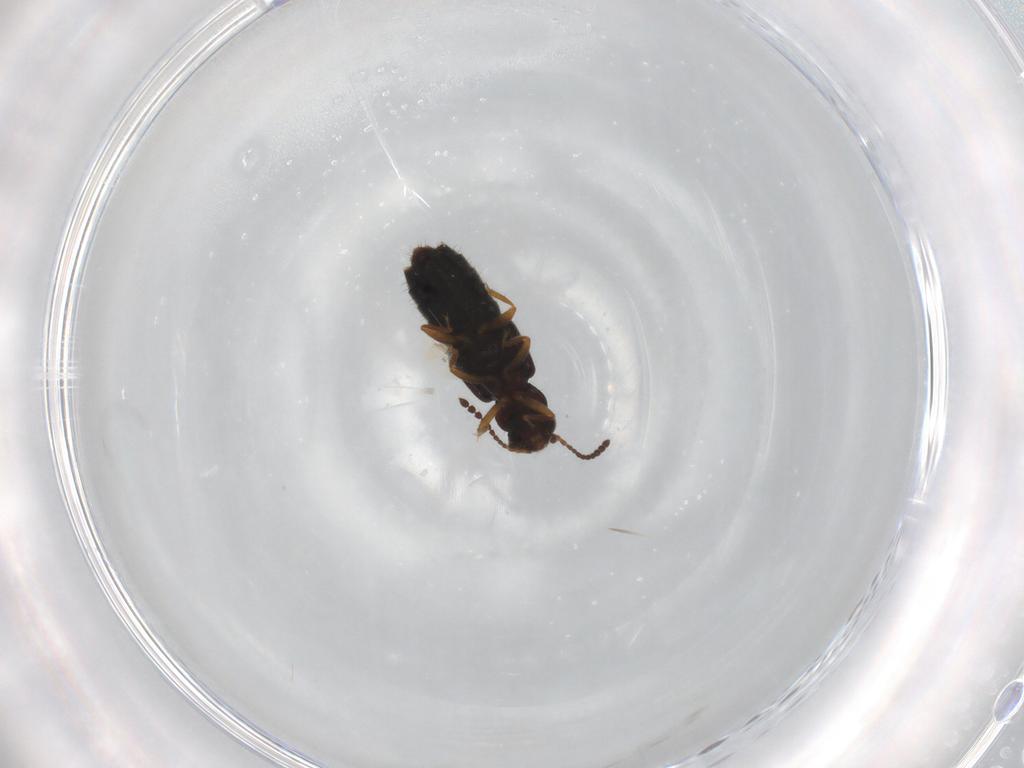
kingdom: Animalia
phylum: Arthropoda
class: Insecta
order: Coleoptera
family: Staphylinidae
